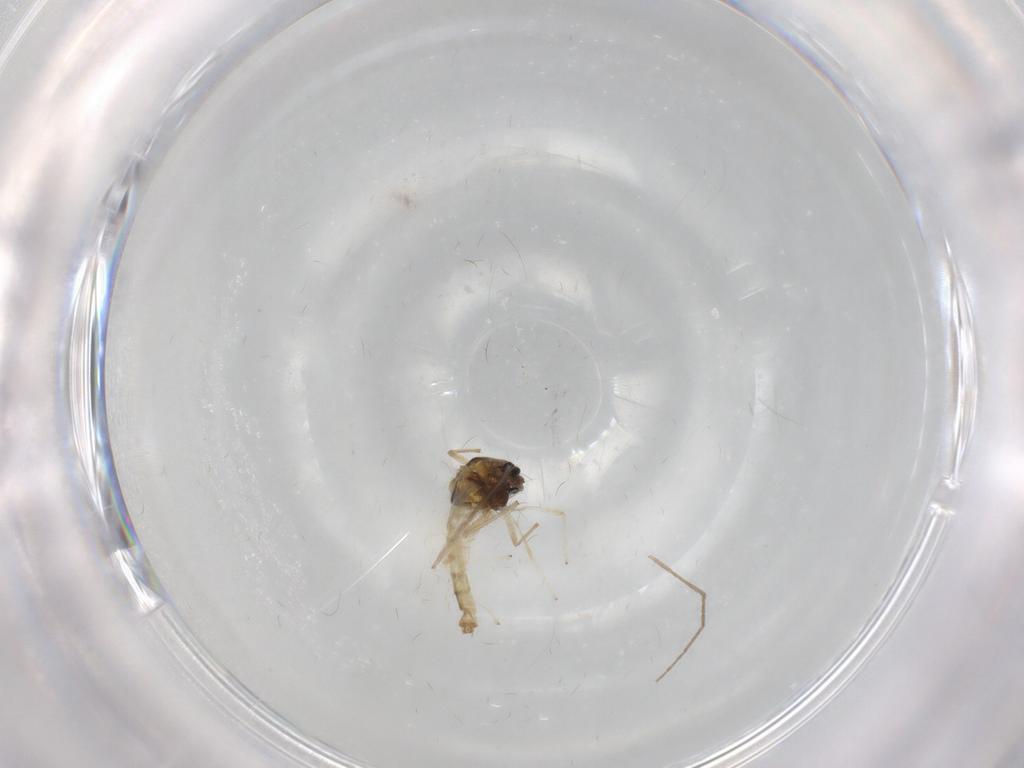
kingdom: Animalia
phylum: Arthropoda
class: Insecta
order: Diptera
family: Chironomidae
